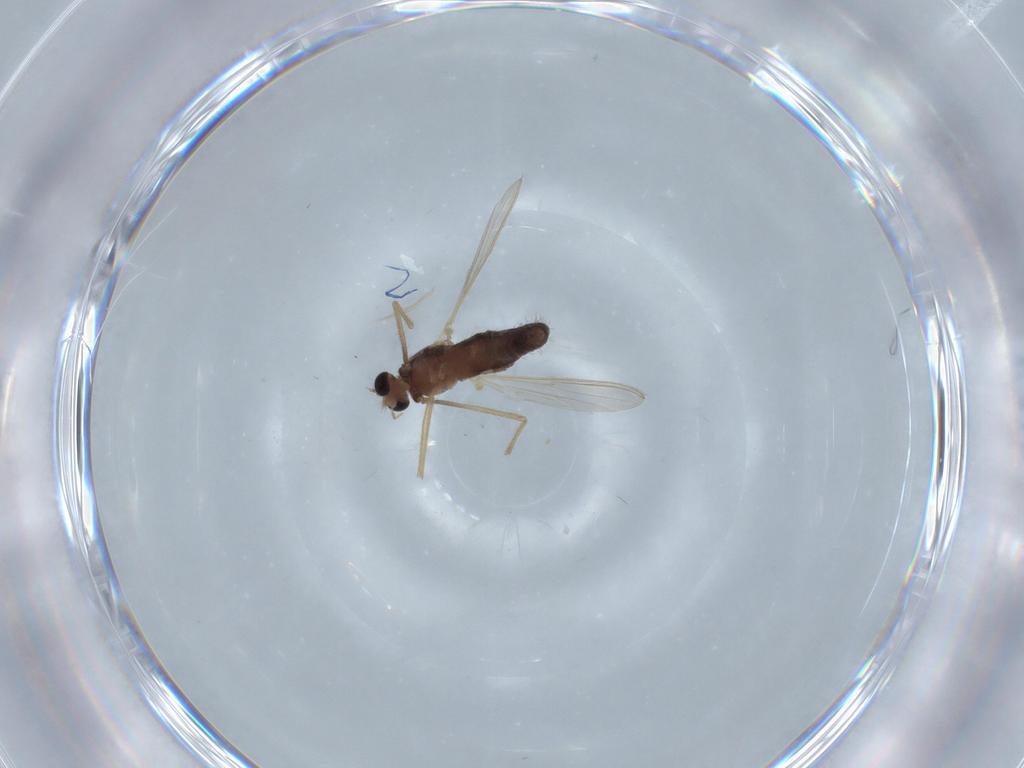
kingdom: Animalia
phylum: Arthropoda
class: Insecta
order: Diptera
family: Chironomidae
